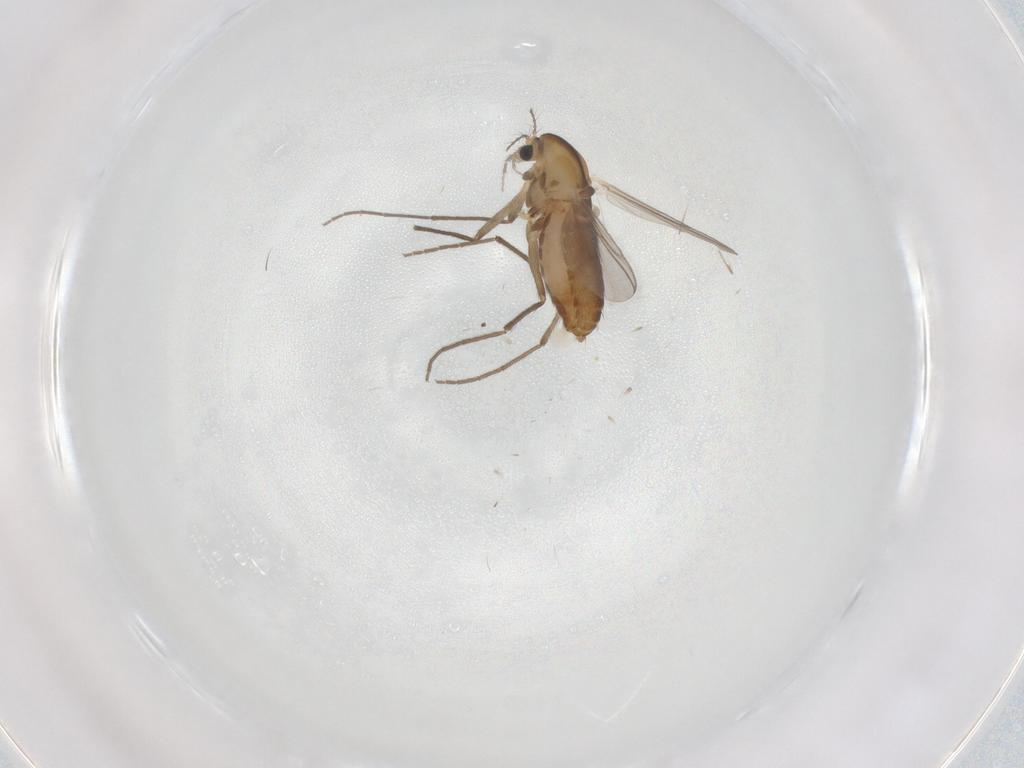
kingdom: Animalia
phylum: Arthropoda
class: Insecta
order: Diptera
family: Chironomidae
